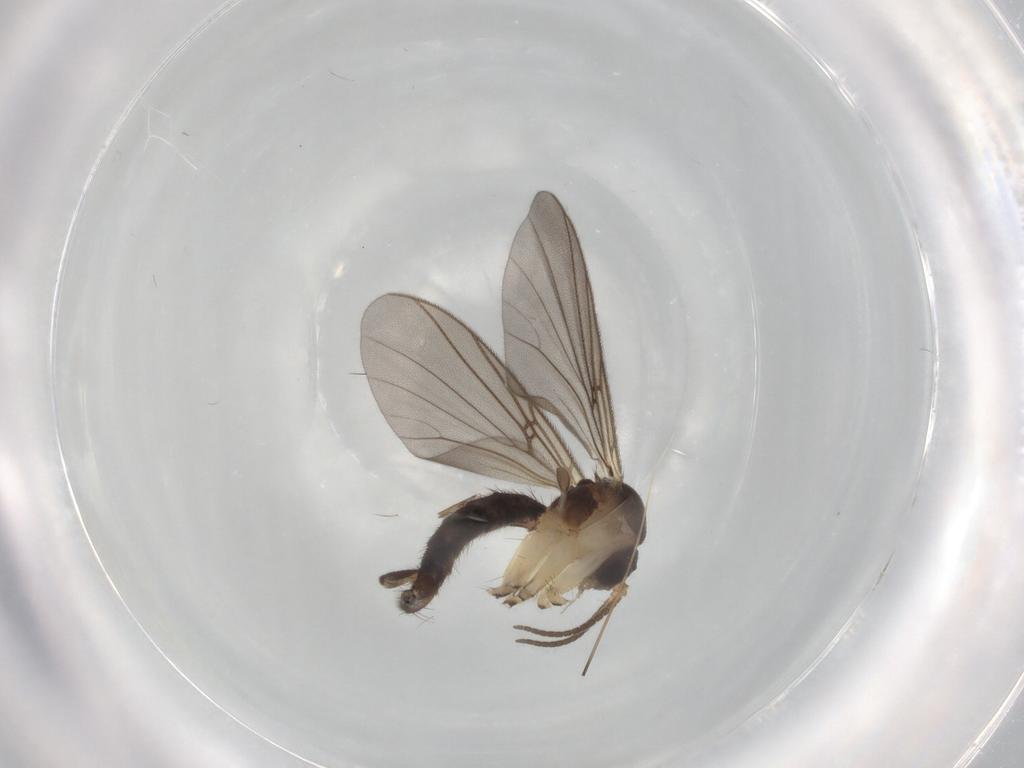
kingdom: Animalia
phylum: Arthropoda
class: Insecta
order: Diptera
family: Mycetophilidae
